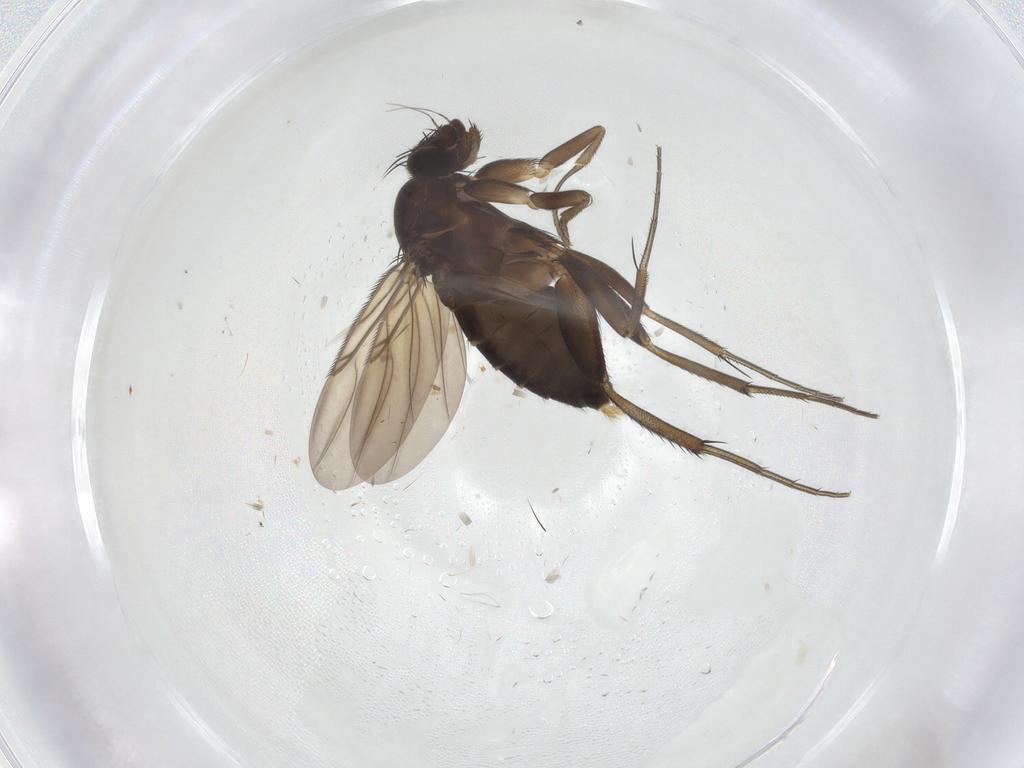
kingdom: Animalia
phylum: Arthropoda
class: Insecta
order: Diptera
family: Phoridae
